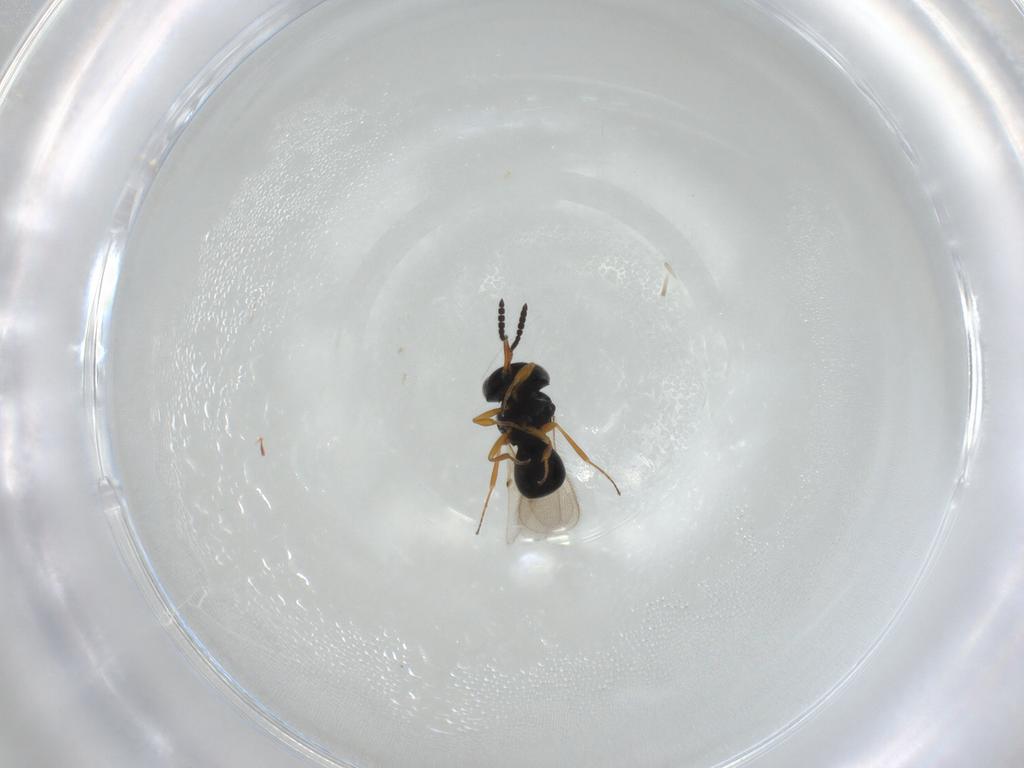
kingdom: Animalia
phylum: Arthropoda
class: Insecta
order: Hymenoptera
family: Scelionidae
